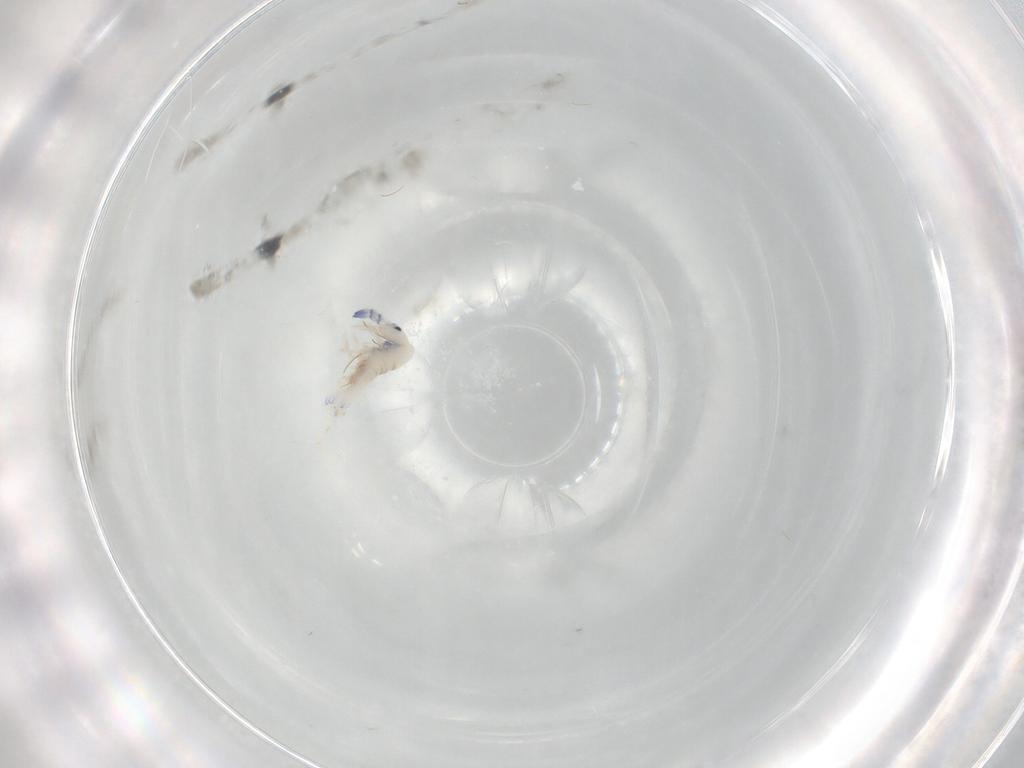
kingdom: Animalia
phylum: Arthropoda
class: Collembola
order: Entomobryomorpha
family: Entomobryidae
